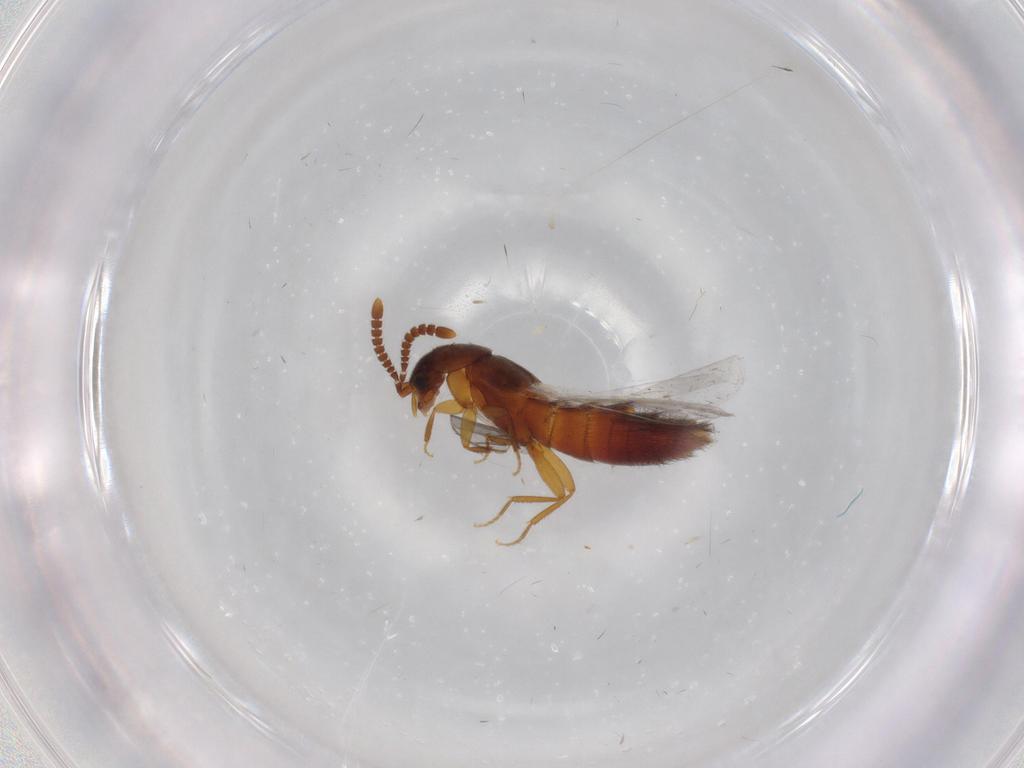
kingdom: Animalia
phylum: Arthropoda
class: Insecta
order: Coleoptera
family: Staphylinidae
